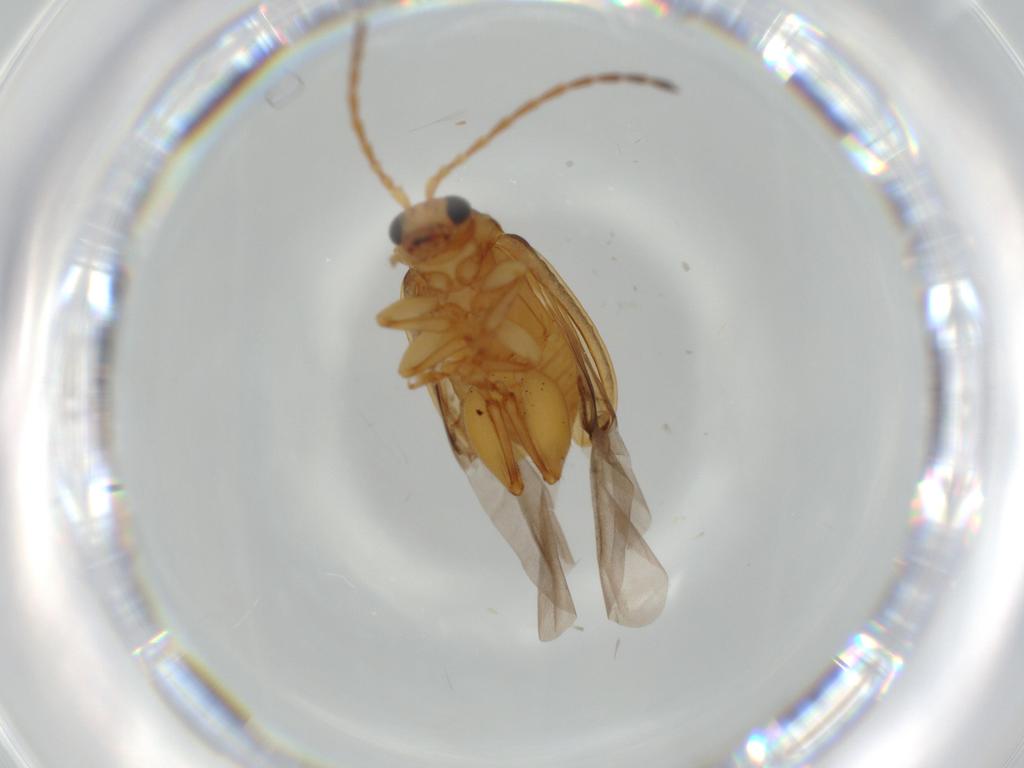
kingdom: Animalia
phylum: Arthropoda
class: Insecta
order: Coleoptera
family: Chrysomelidae
